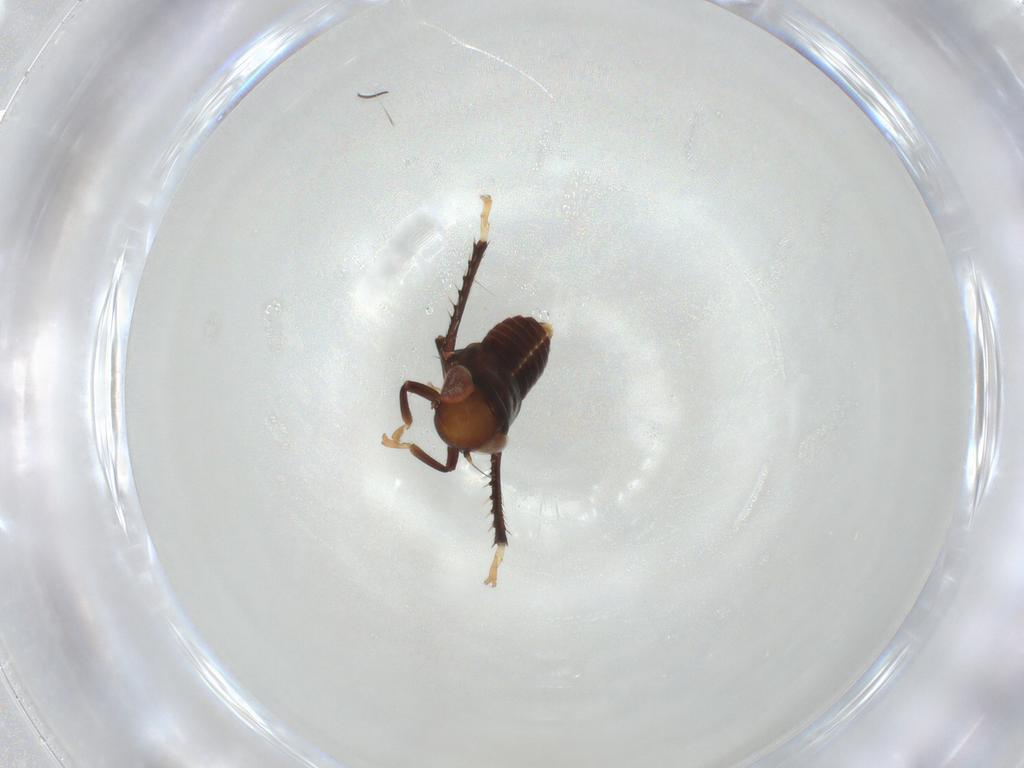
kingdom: Animalia
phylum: Arthropoda
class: Insecta
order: Hemiptera
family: Cicadellidae
